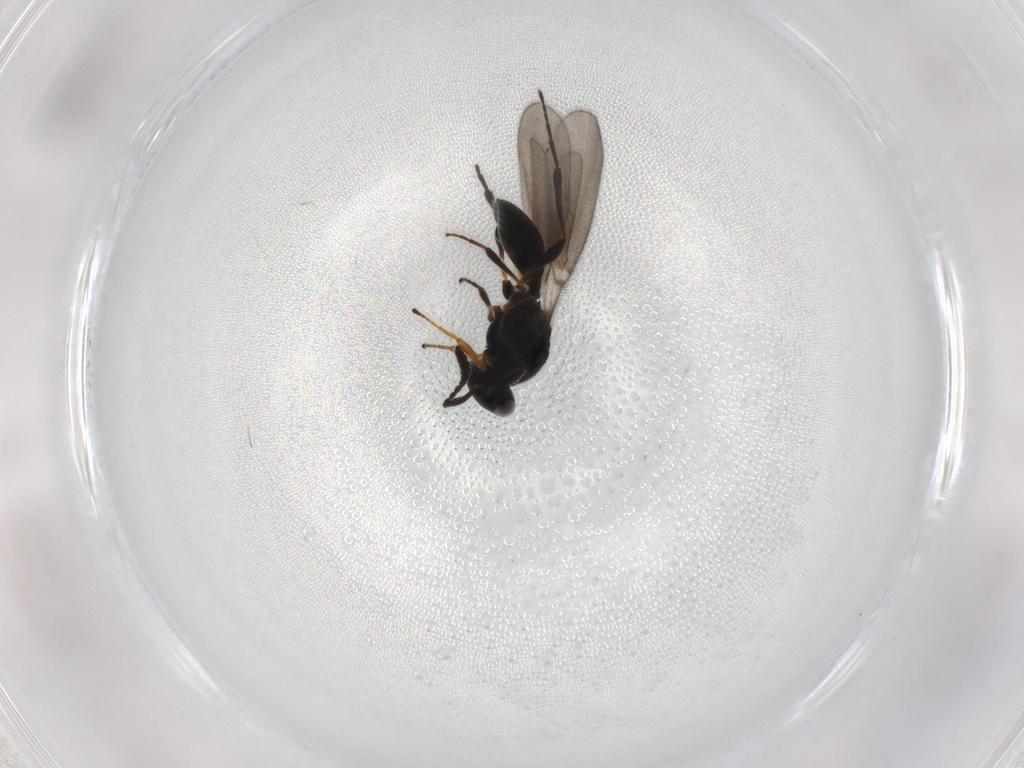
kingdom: Animalia
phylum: Arthropoda
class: Insecta
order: Hymenoptera
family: Platygastridae
